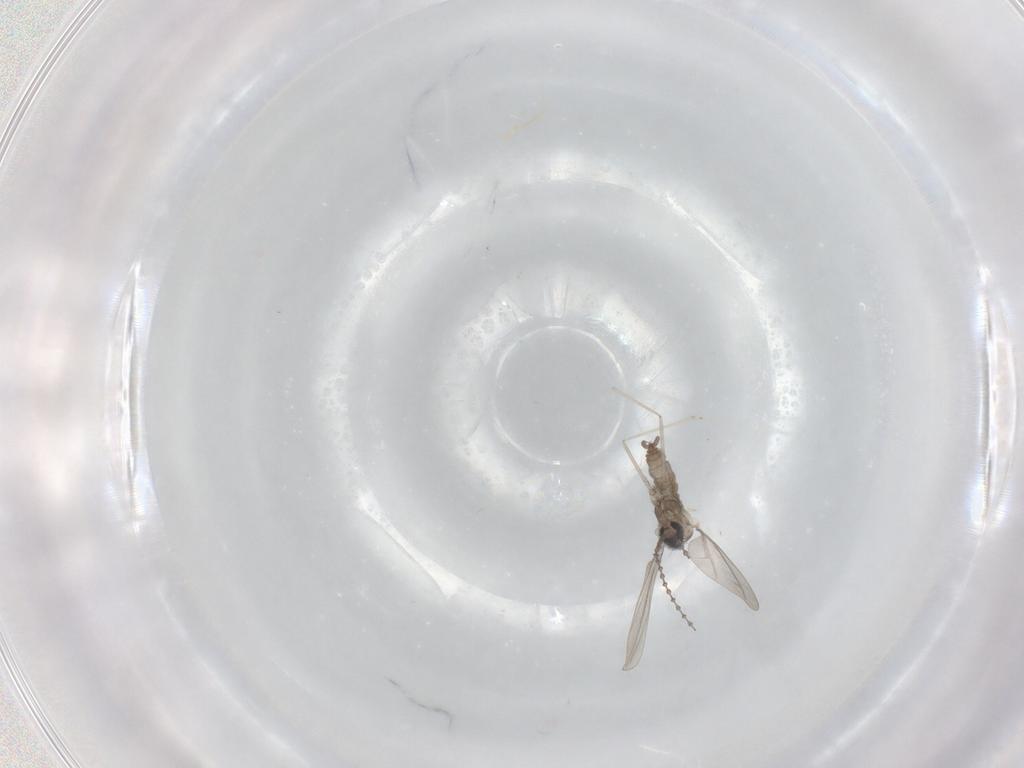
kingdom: Animalia
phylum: Arthropoda
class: Insecta
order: Diptera
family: Cecidomyiidae
